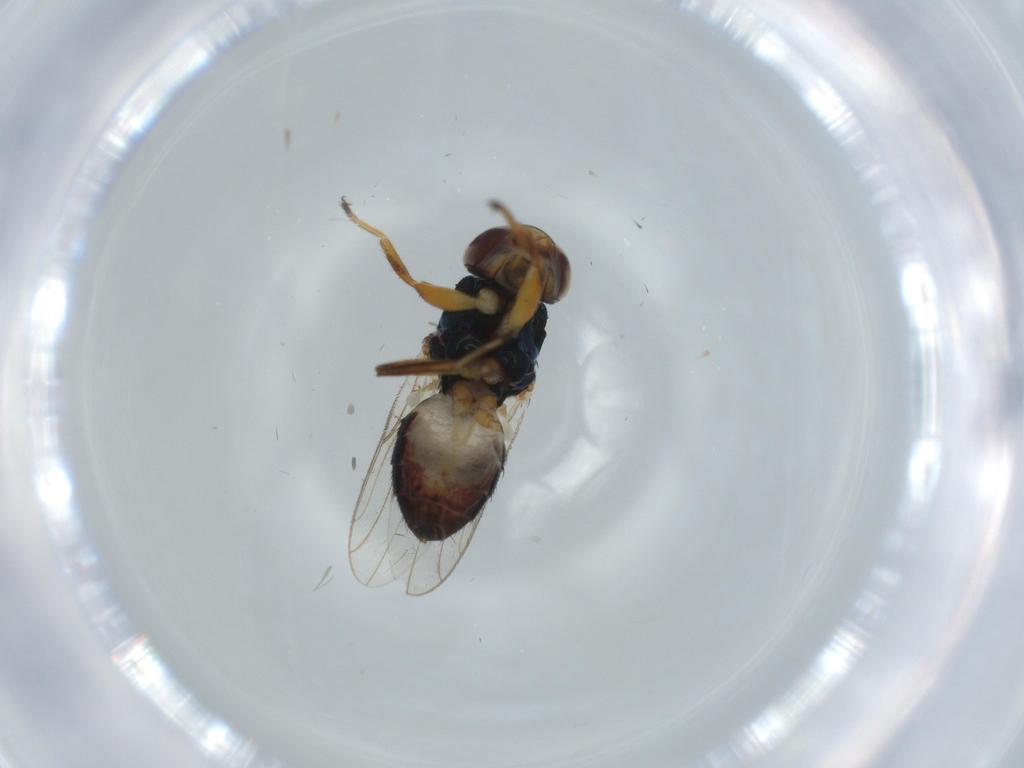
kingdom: Animalia
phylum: Arthropoda
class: Insecta
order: Diptera
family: Chloropidae
